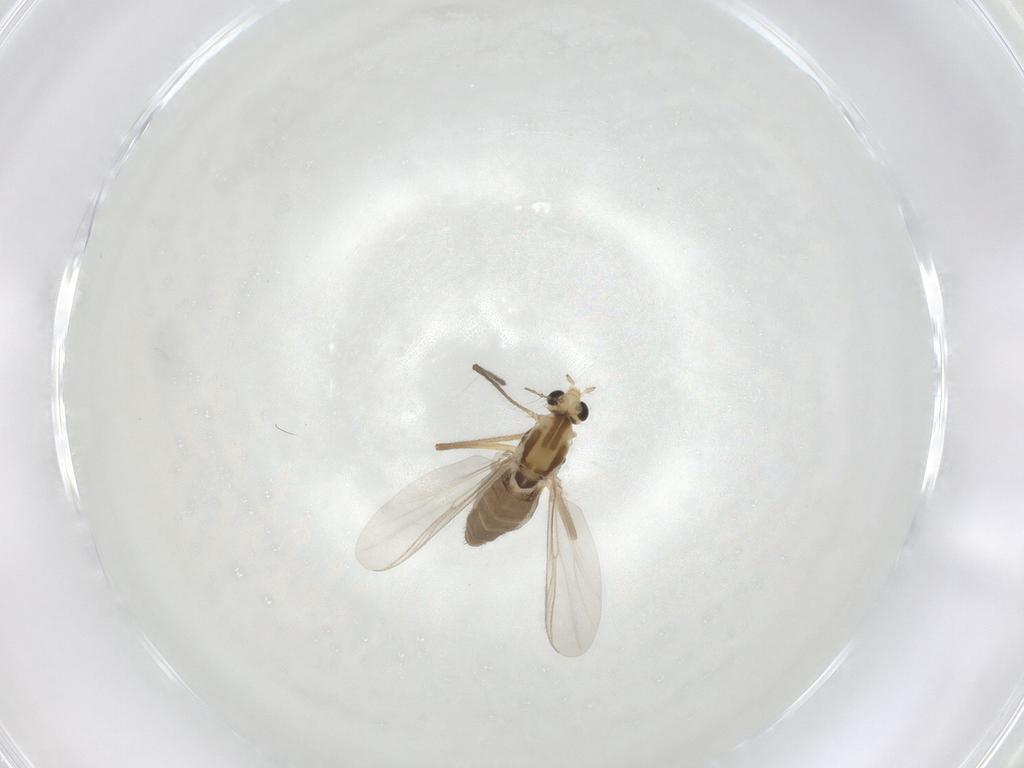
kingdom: Animalia
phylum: Arthropoda
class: Insecta
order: Diptera
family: Chironomidae
